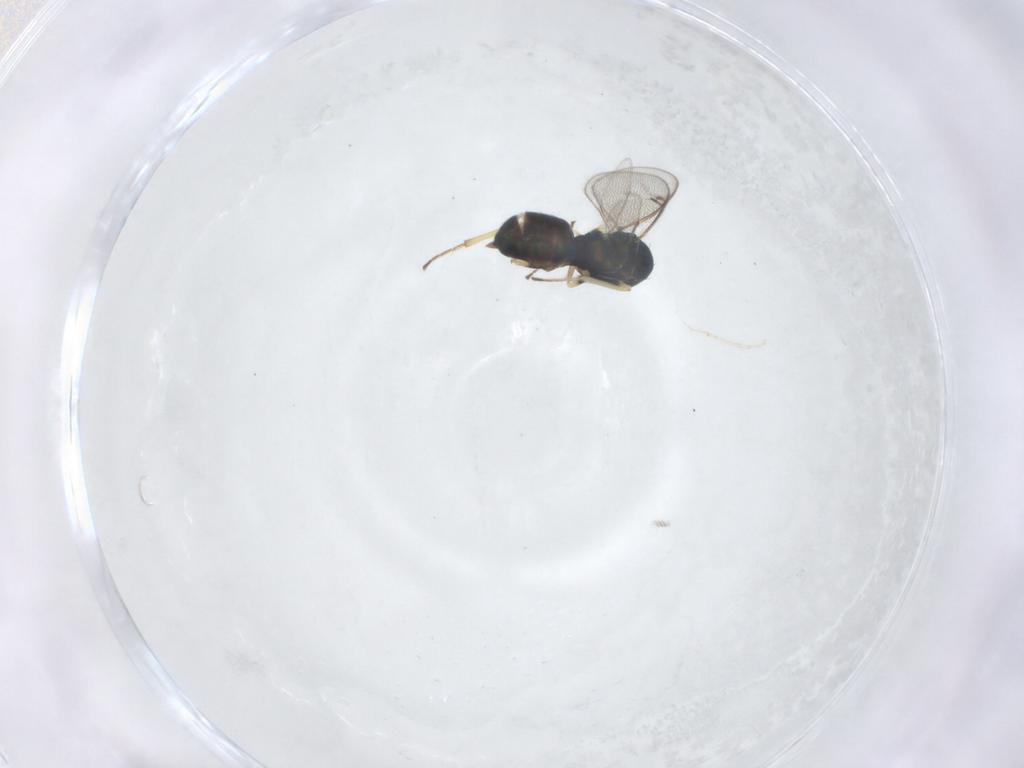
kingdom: Animalia
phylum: Arthropoda
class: Insecta
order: Hymenoptera
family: Eulophidae
